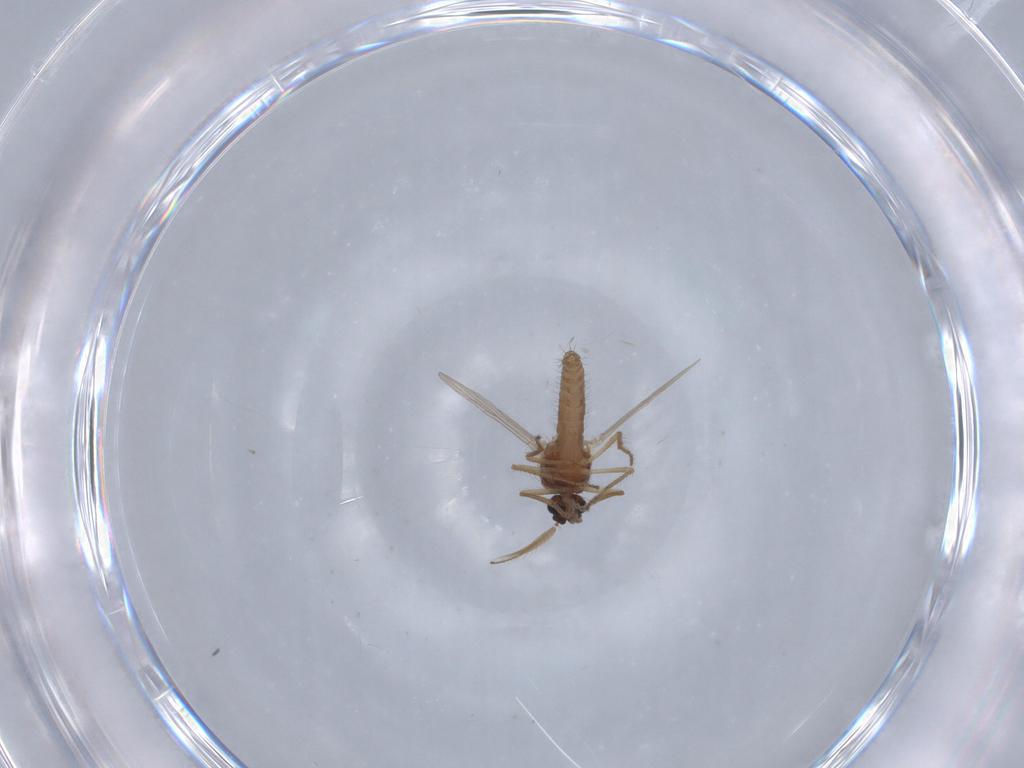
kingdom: Animalia
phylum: Arthropoda
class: Insecta
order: Diptera
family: Ceratopogonidae
